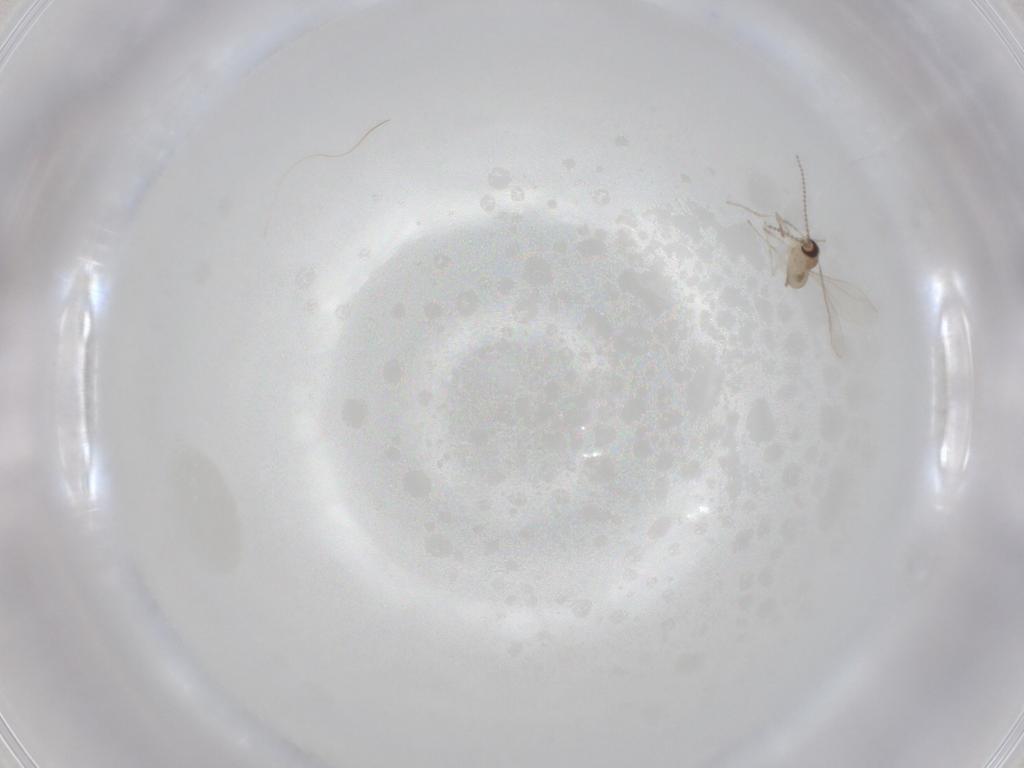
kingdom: Animalia
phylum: Arthropoda
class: Insecta
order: Diptera
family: Cecidomyiidae
